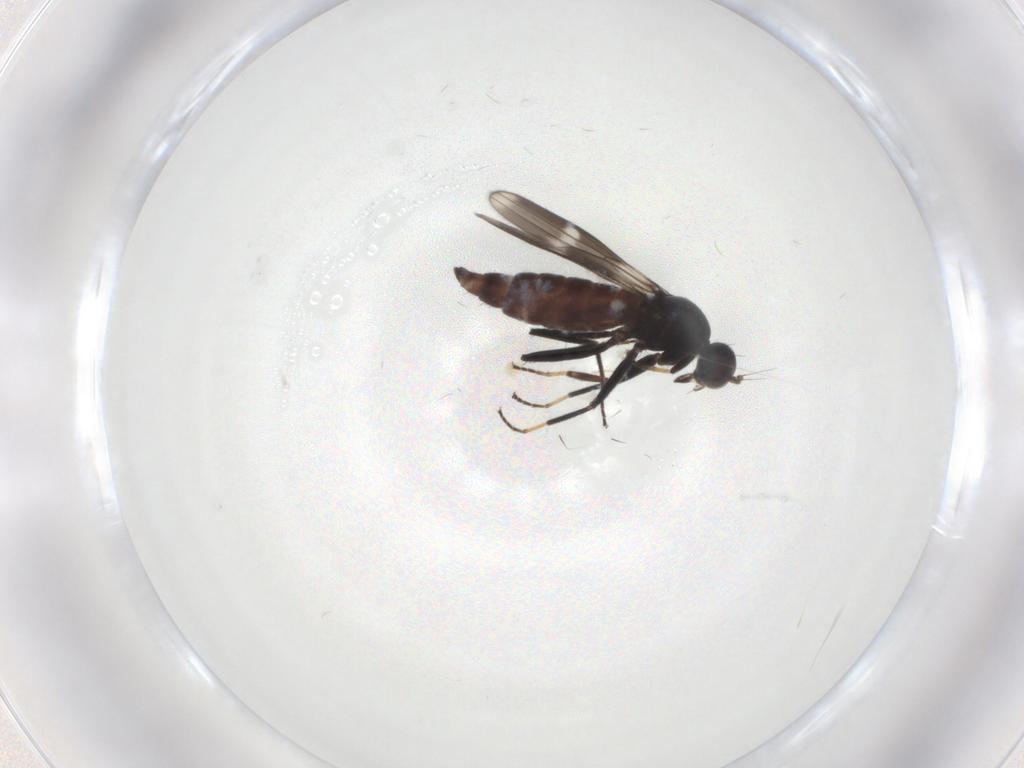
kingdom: Animalia
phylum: Arthropoda
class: Insecta
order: Diptera
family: Hybotidae
